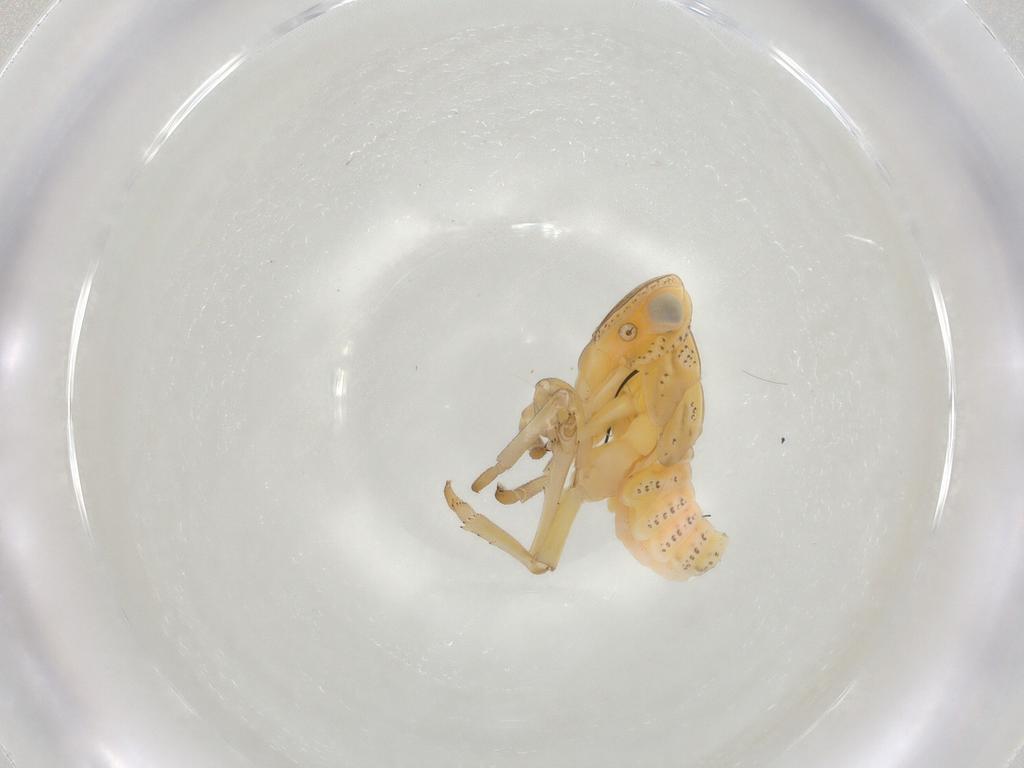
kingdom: Animalia
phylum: Arthropoda
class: Insecta
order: Hemiptera
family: Tropiduchidae
